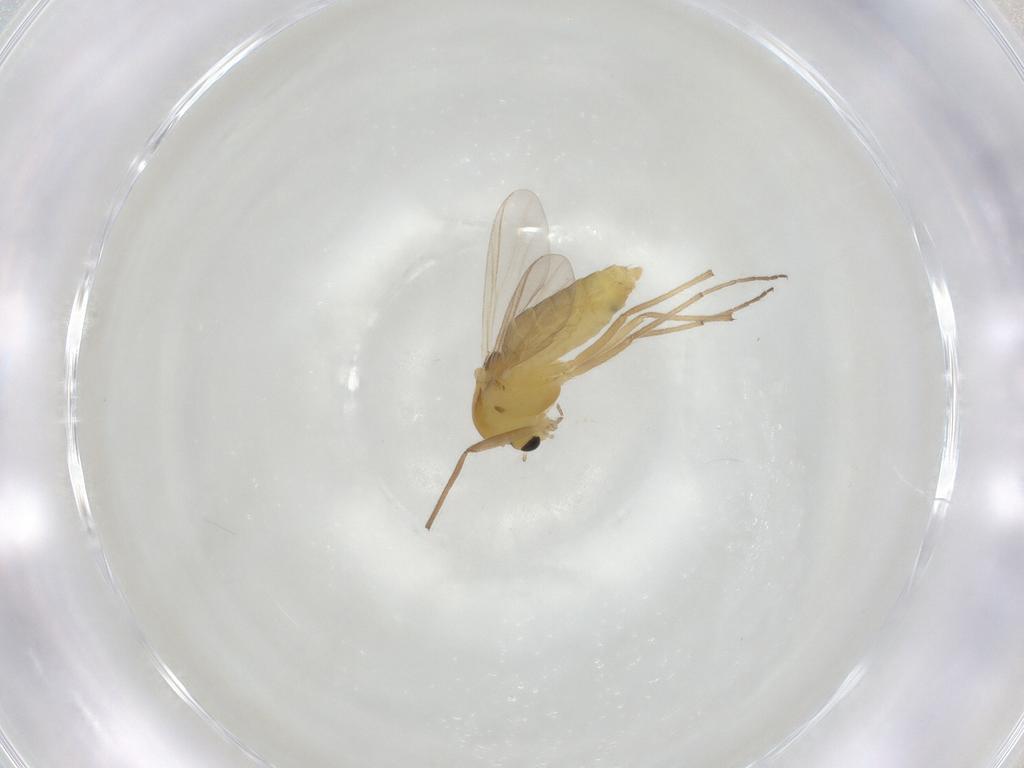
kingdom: Animalia
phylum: Arthropoda
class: Insecta
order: Diptera
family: Chironomidae
